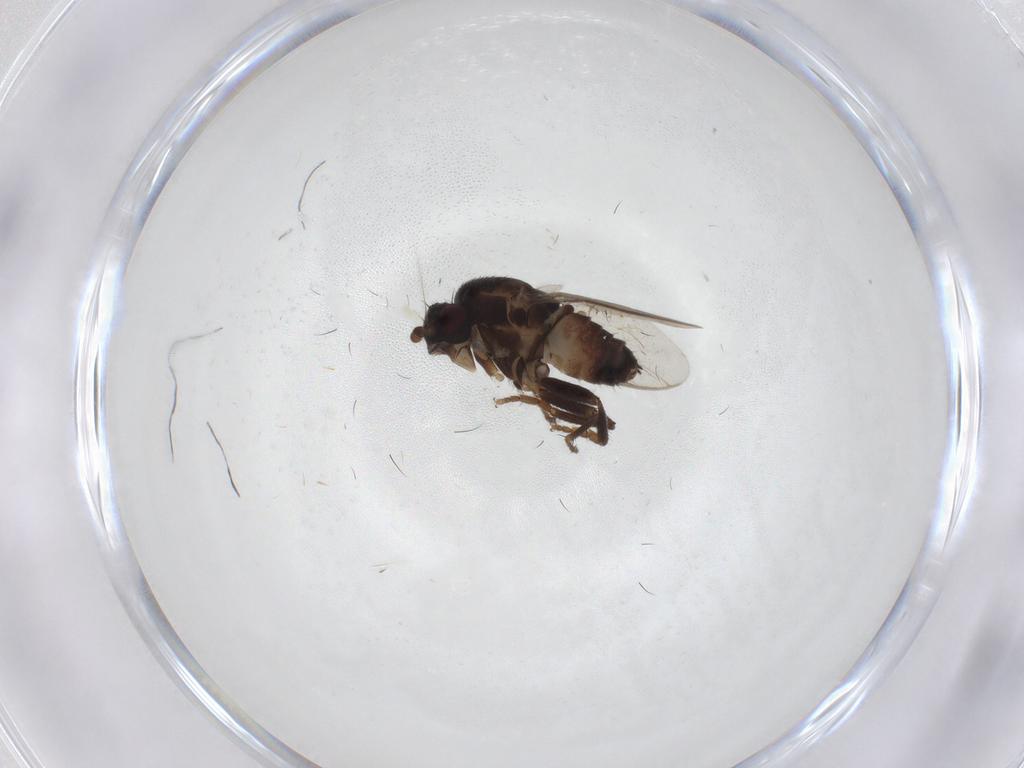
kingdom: Animalia
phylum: Arthropoda
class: Insecta
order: Diptera
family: Sphaeroceridae
